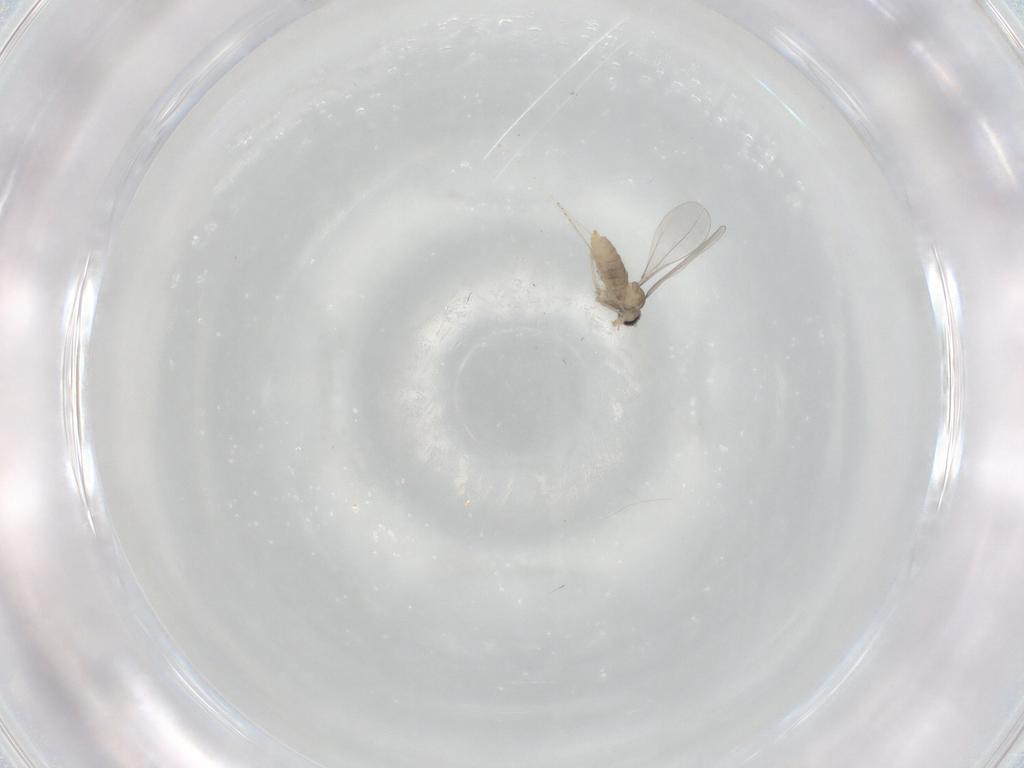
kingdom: Animalia
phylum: Arthropoda
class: Insecta
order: Diptera
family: Cecidomyiidae
